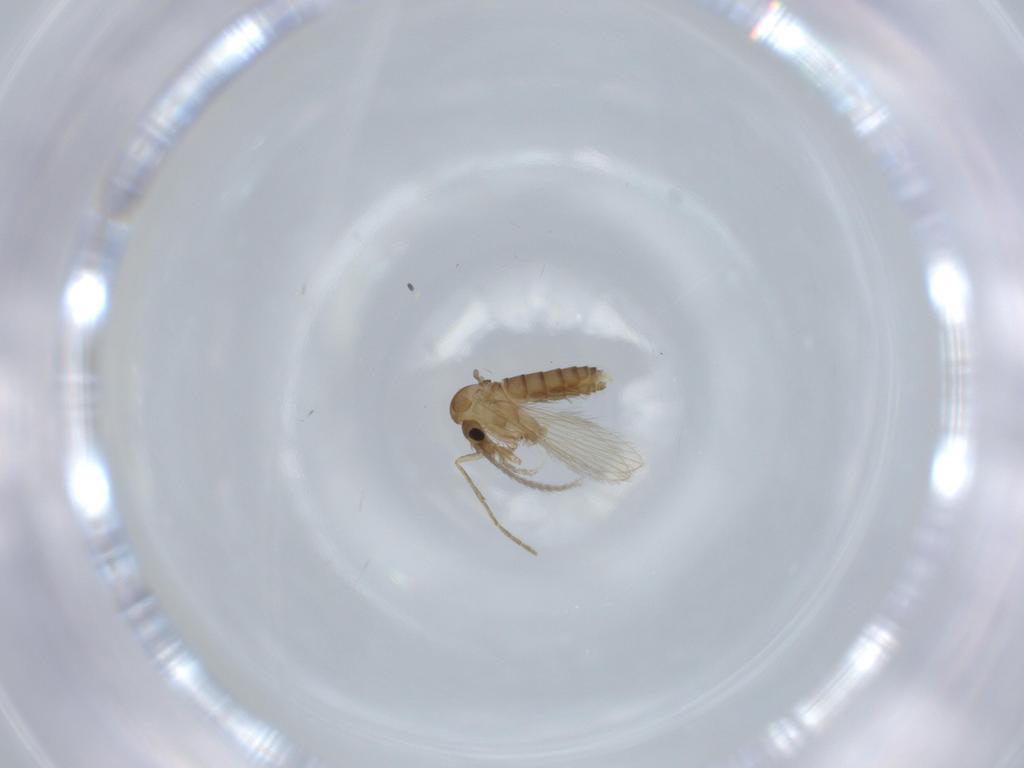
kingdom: Animalia
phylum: Arthropoda
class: Insecta
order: Diptera
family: Psychodidae
